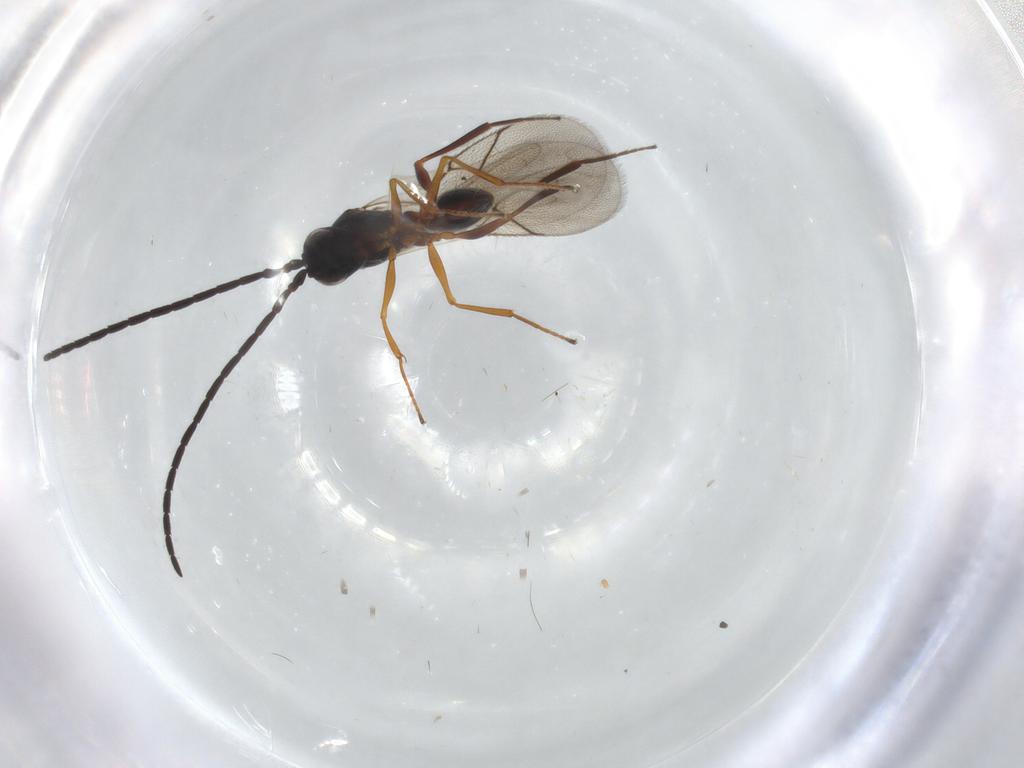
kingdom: Animalia
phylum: Arthropoda
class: Insecta
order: Hymenoptera
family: Figitidae
